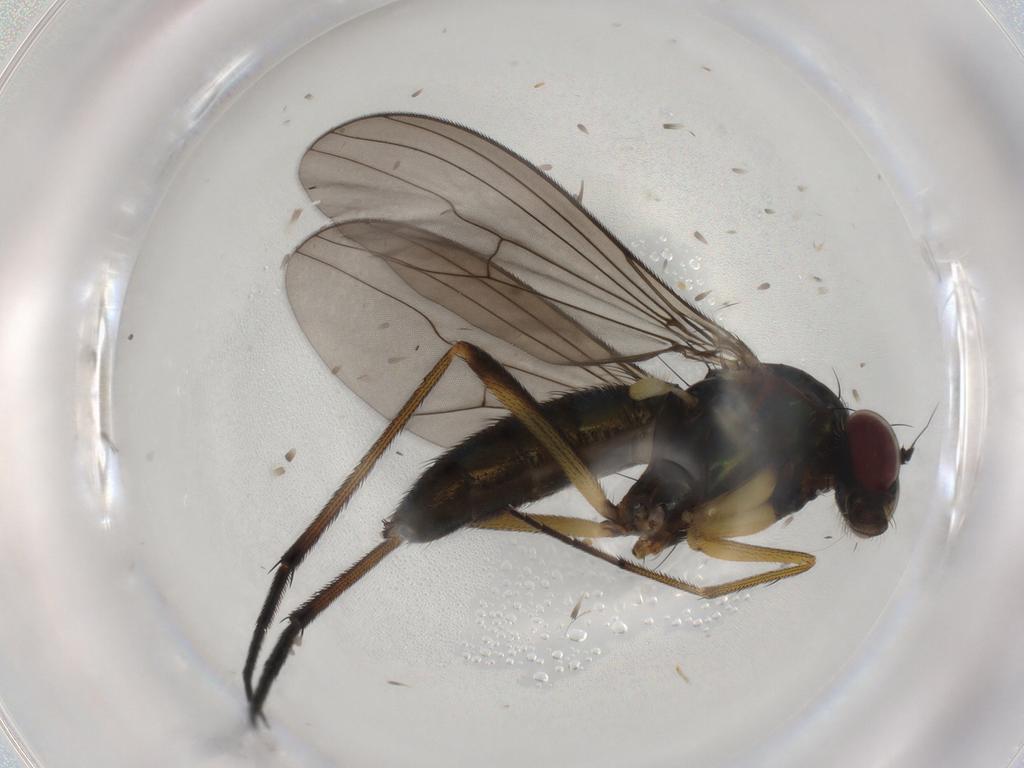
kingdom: Animalia
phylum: Arthropoda
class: Insecta
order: Diptera
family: Dolichopodidae
